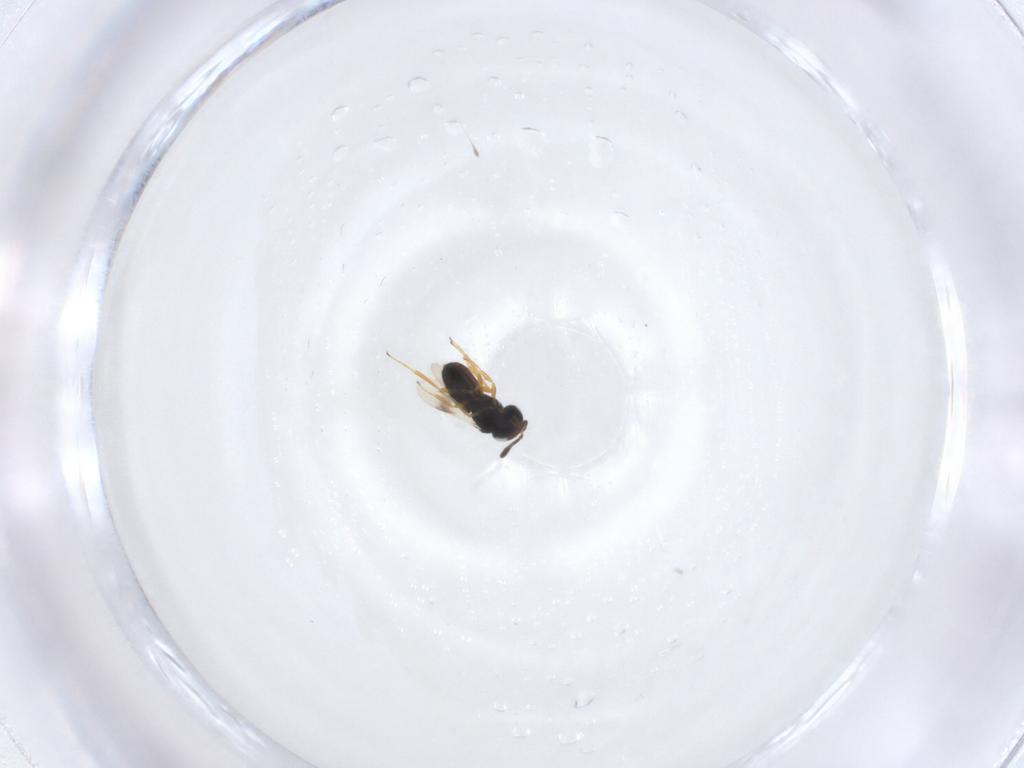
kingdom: Animalia
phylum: Arthropoda
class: Insecta
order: Hymenoptera
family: Scelionidae
